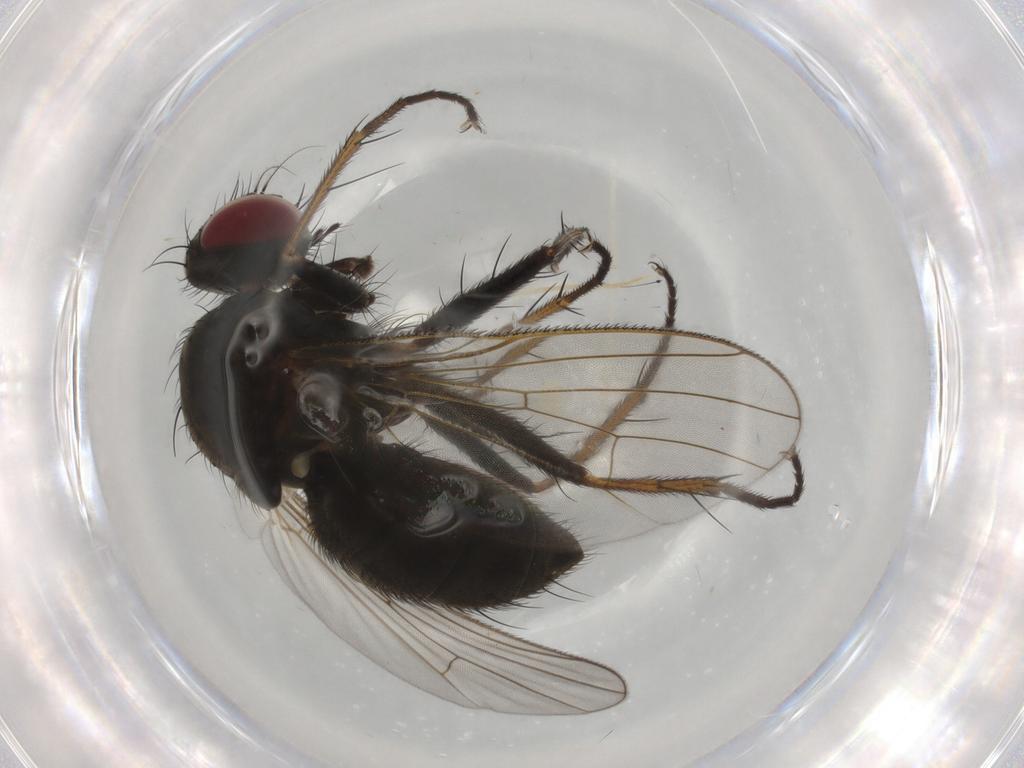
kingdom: Animalia
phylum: Arthropoda
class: Insecta
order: Diptera
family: Muscidae
